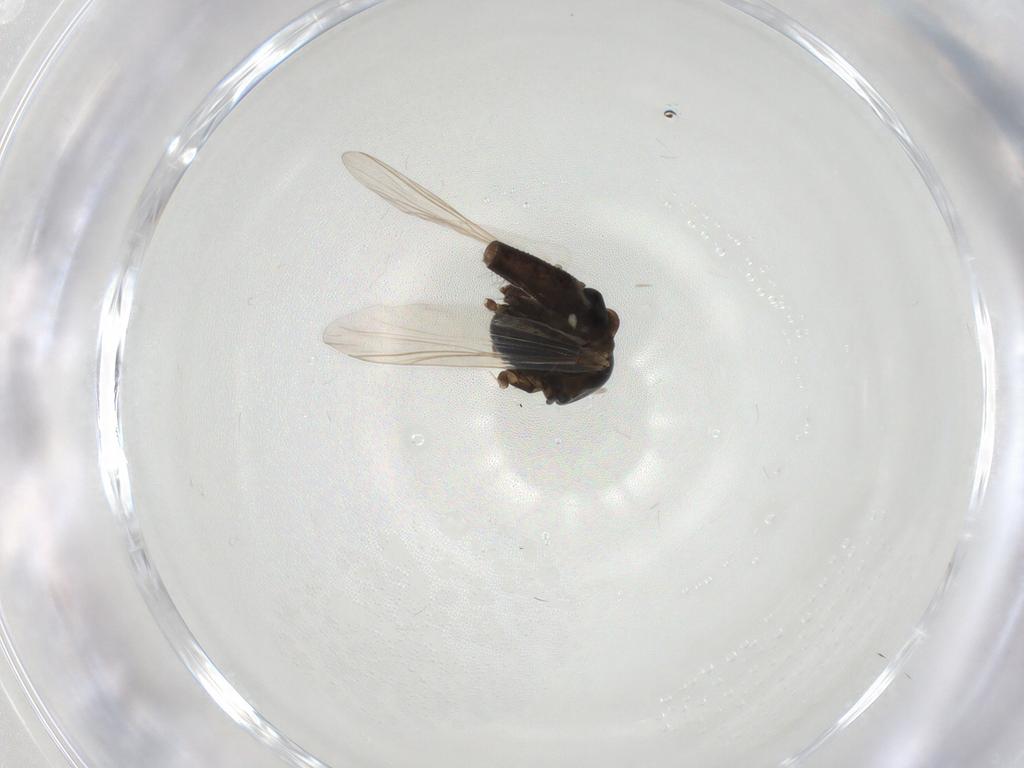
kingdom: Animalia
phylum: Arthropoda
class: Insecta
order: Diptera
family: Chironomidae
